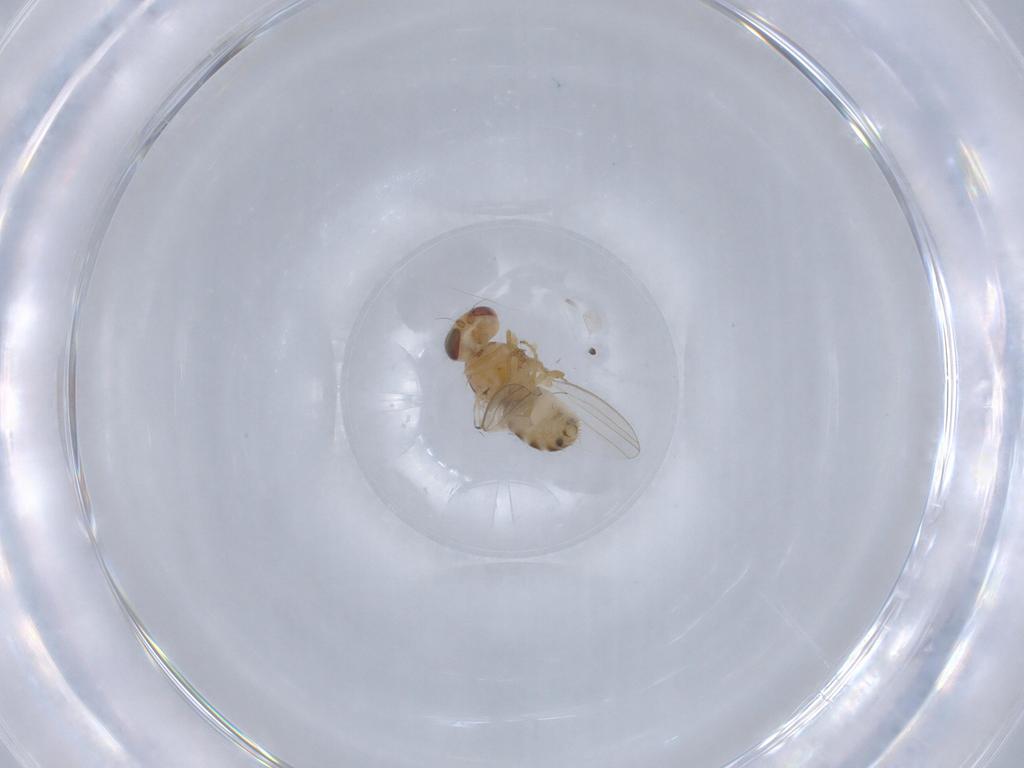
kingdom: Animalia
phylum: Arthropoda
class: Insecta
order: Diptera
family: Chyromyidae
